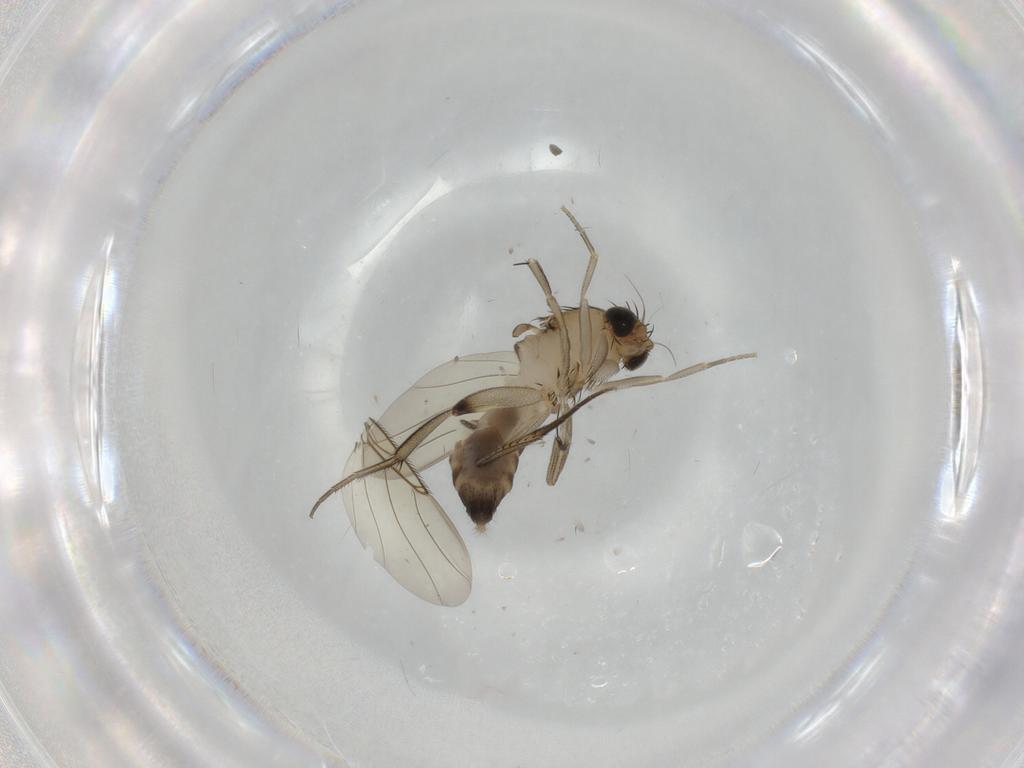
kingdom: Animalia
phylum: Arthropoda
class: Insecta
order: Diptera
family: Phoridae
